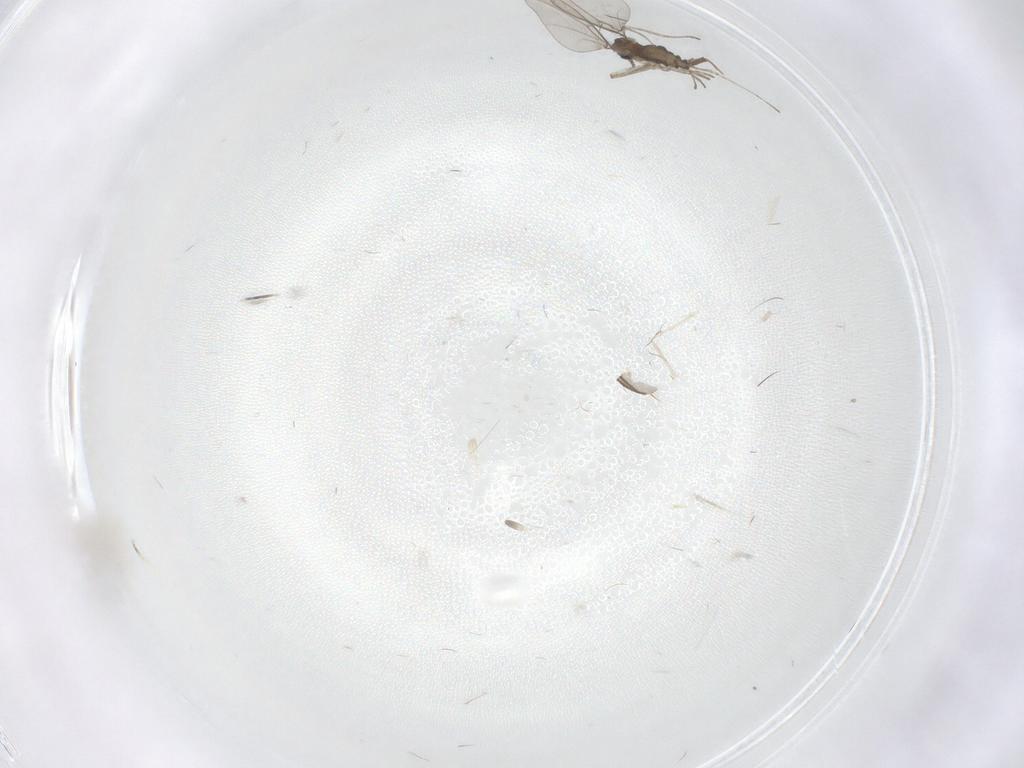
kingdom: Animalia
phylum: Arthropoda
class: Insecta
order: Diptera
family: Cecidomyiidae
